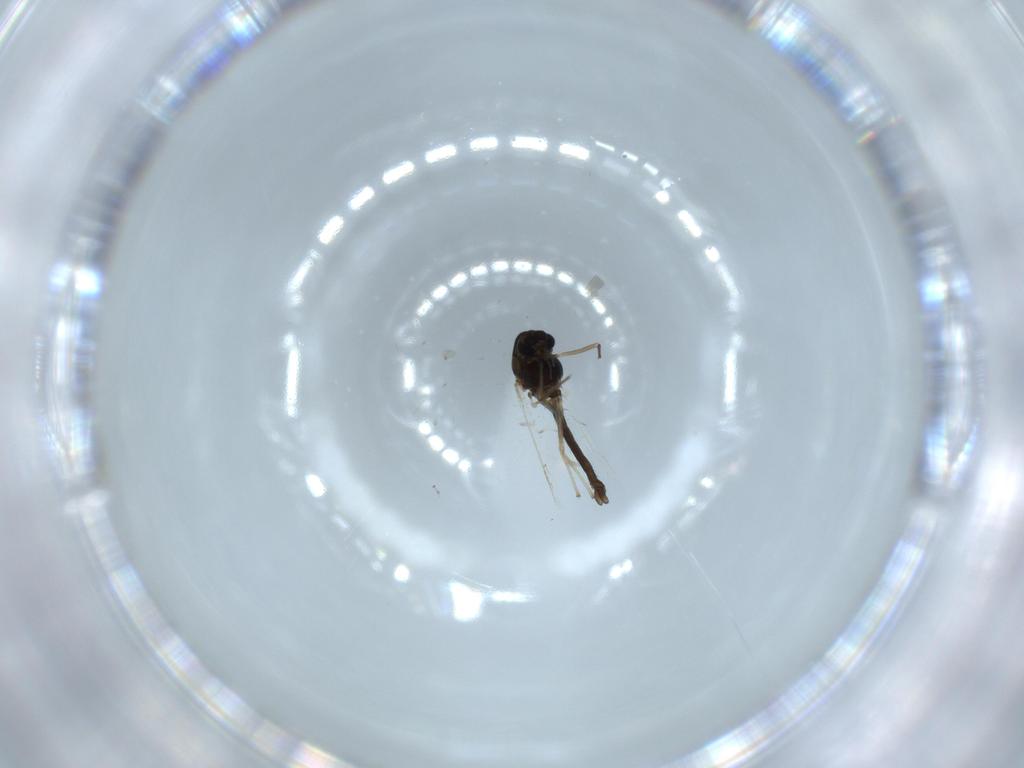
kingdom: Animalia
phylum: Arthropoda
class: Insecta
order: Diptera
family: Chironomidae
